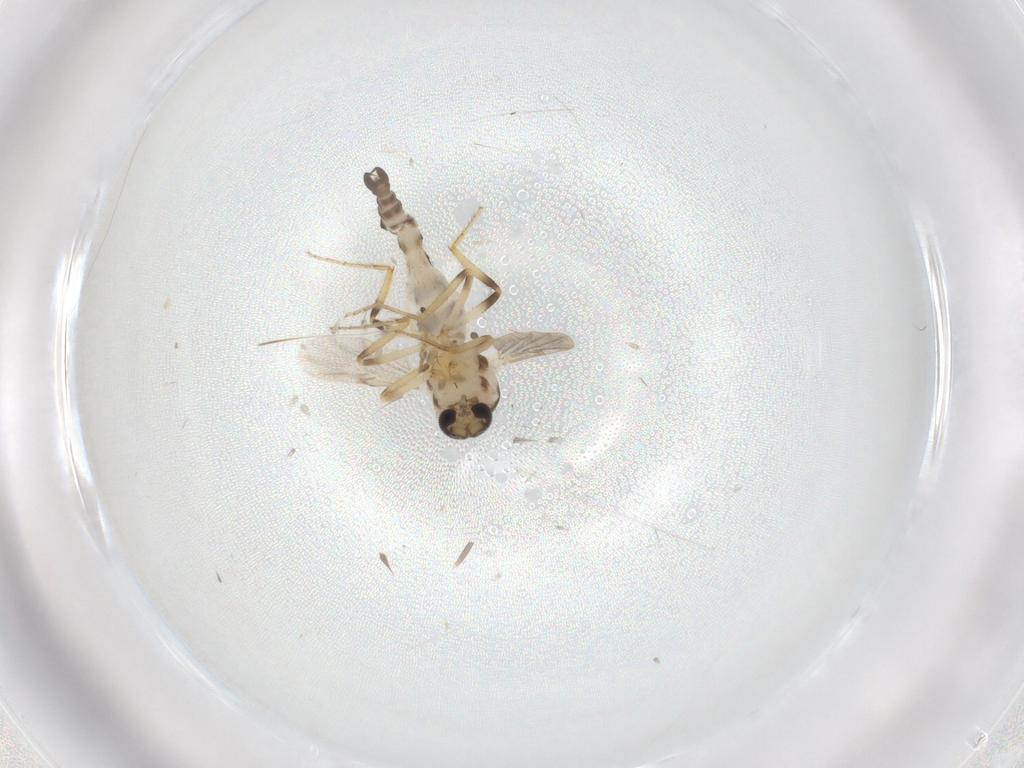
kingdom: Animalia
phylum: Arthropoda
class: Insecta
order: Diptera
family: Ceratopogonidae
